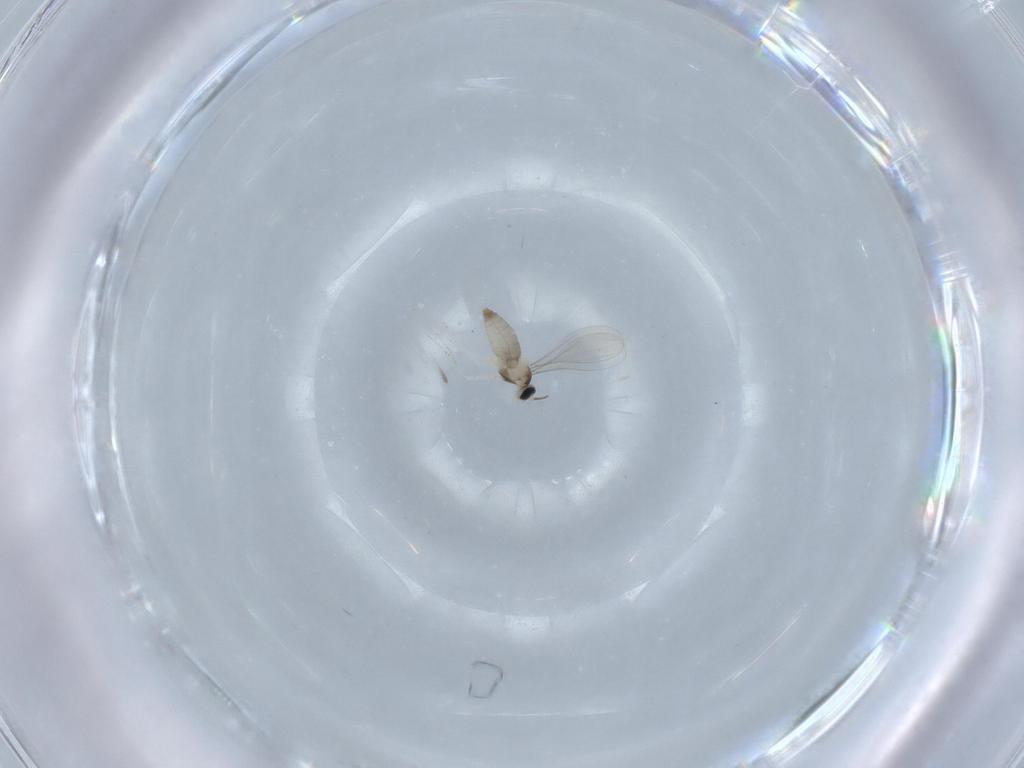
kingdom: Animalia
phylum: Arthropoda
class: Insecta
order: Diptera
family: Cecidomyiidae
